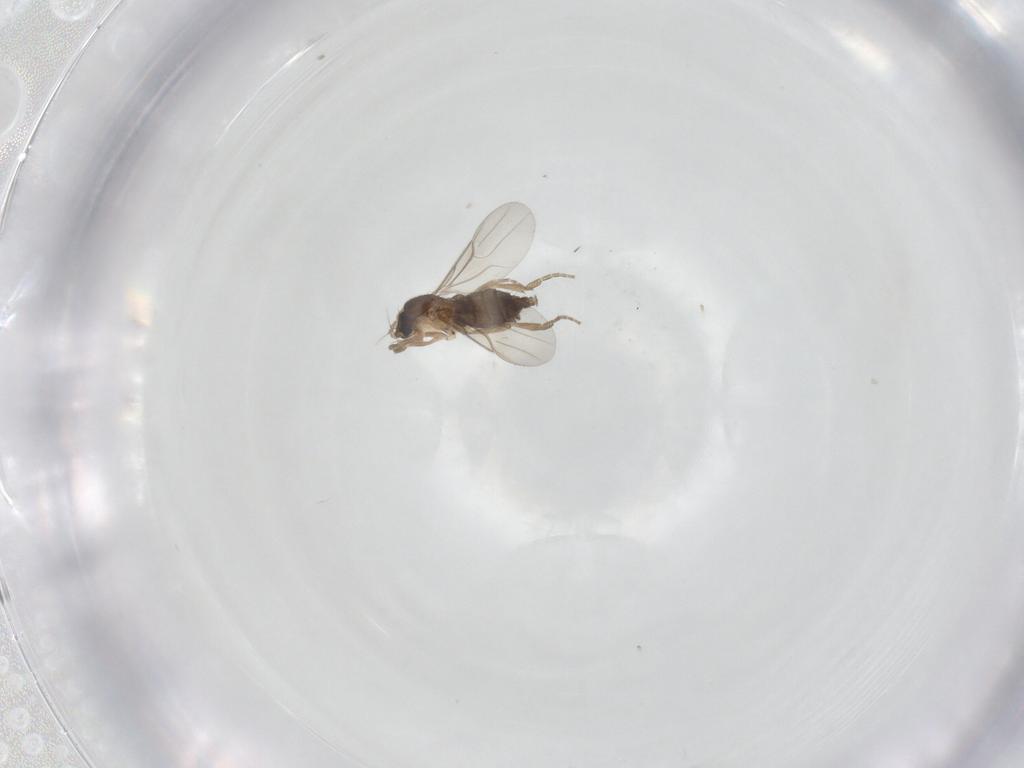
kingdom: Animalia
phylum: Arthropoda
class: Insecta
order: Diptera
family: Phoridae
